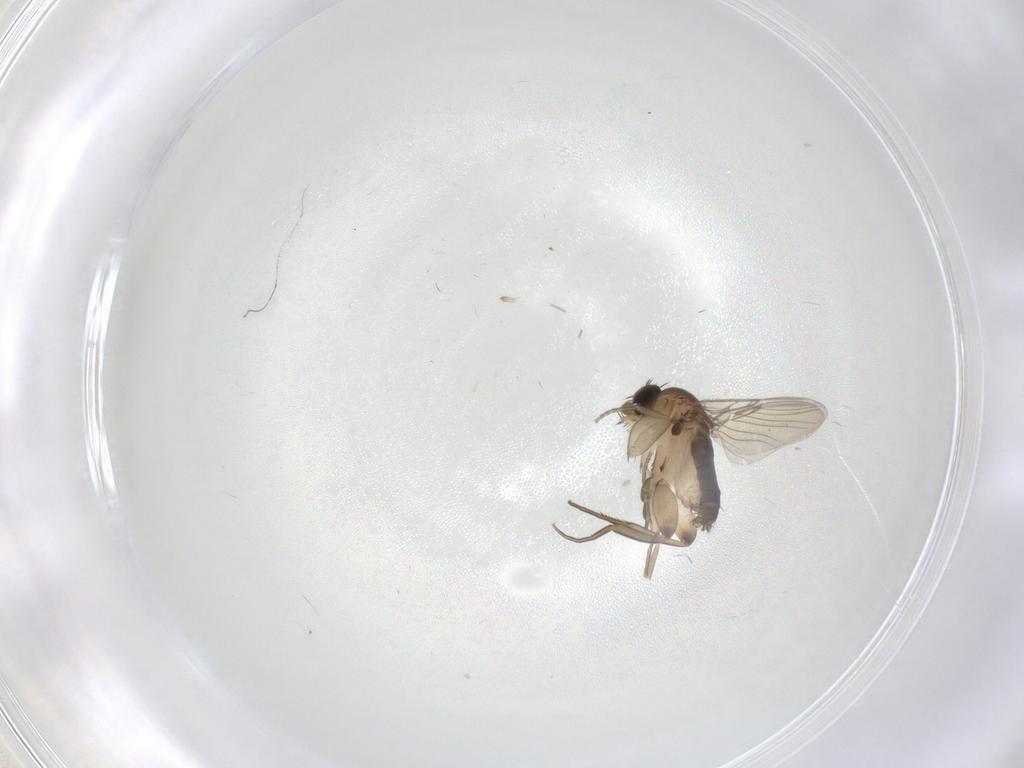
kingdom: Animalia
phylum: Arthropoda
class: Insecta
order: Diptera
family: Phoridae
